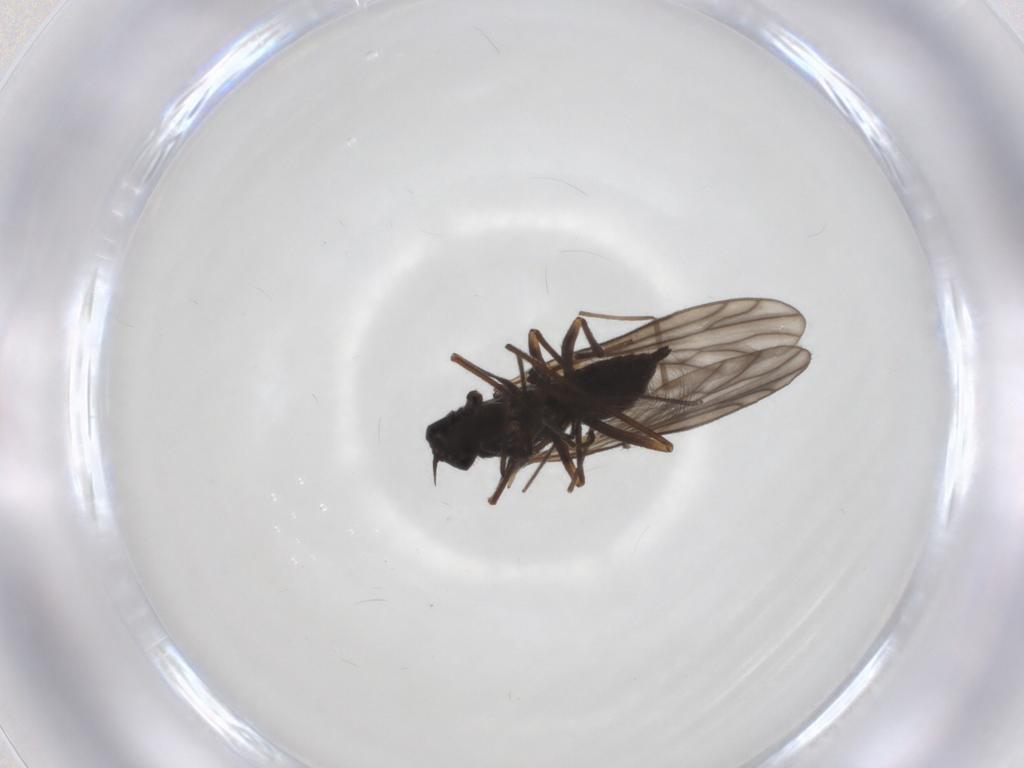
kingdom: Animalia
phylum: Arthropoda
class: Insecta
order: Diptera
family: Empididae
